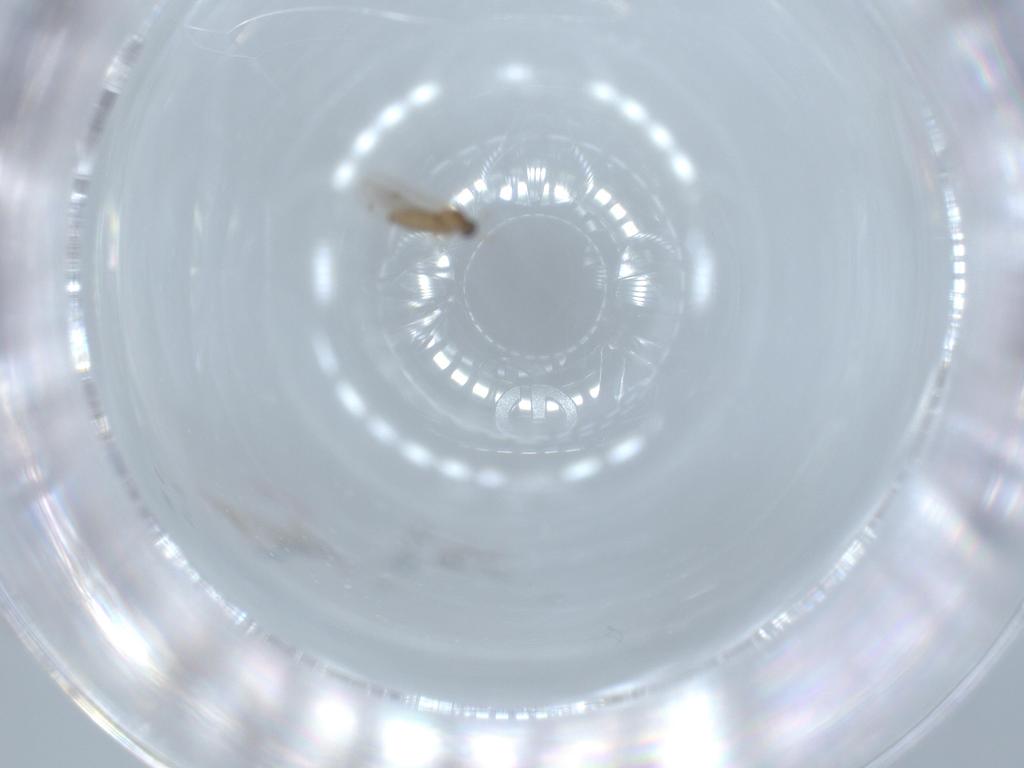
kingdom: Animalia
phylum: Arthropoda
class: Insecta
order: Diptera
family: Cecidomyiidae
